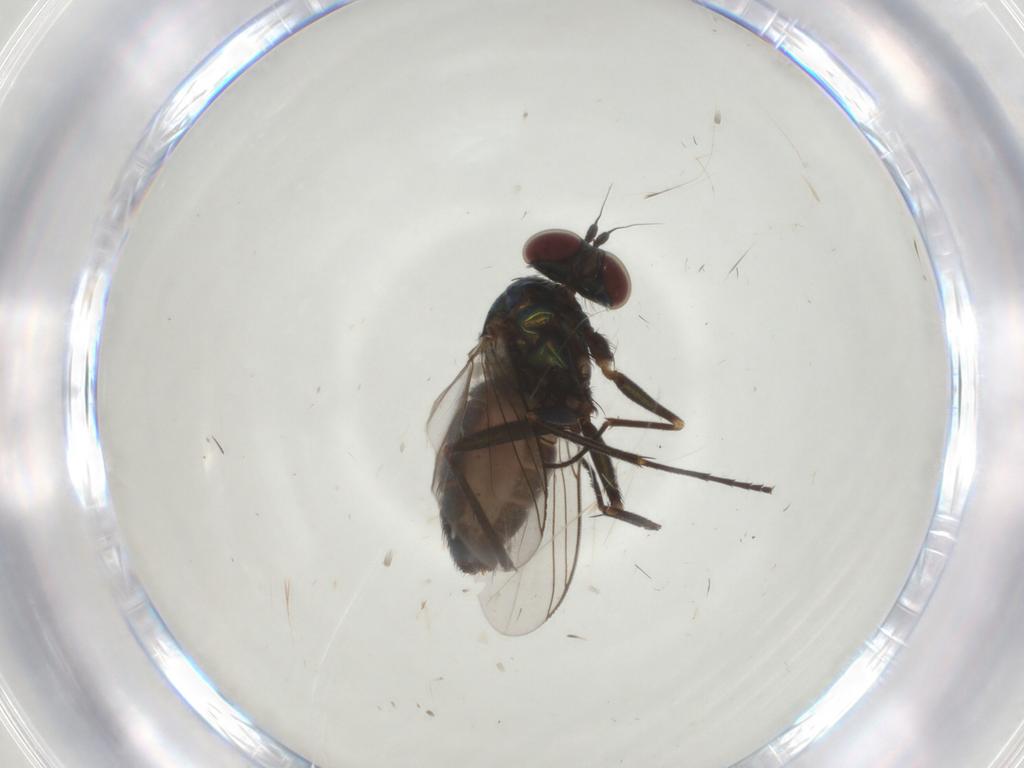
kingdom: Animalia
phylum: Arthropoda
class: Insecta
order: Diptera
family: Dolichopodidae
